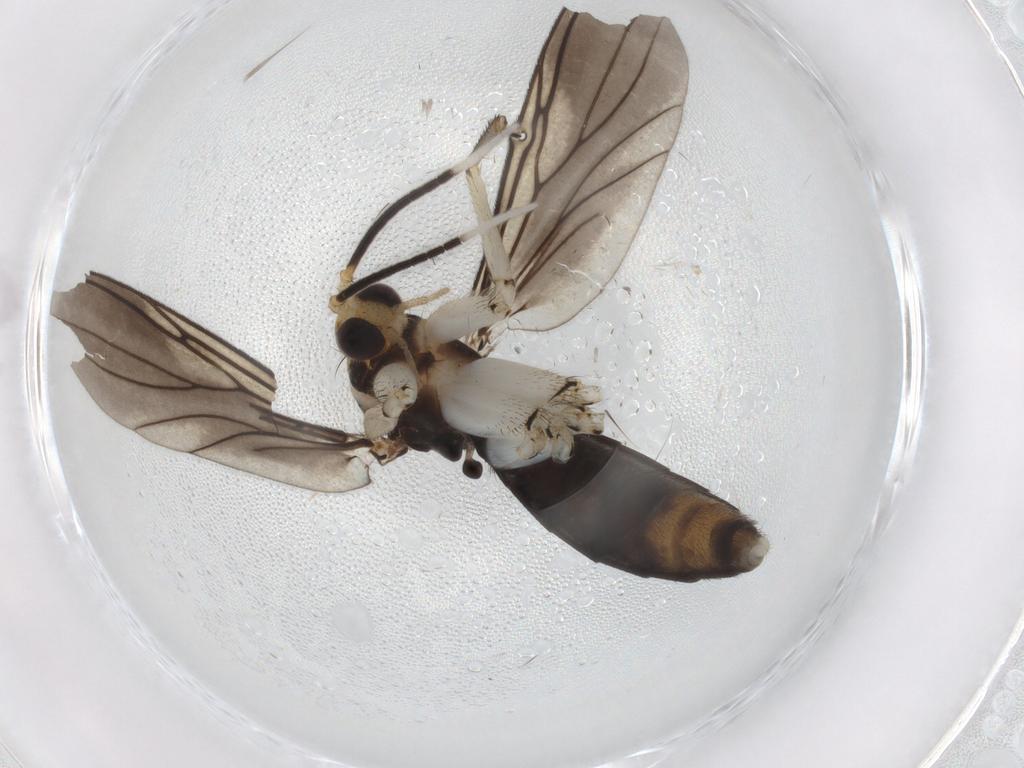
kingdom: Animalia
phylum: Arthropoda
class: Insecta
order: Diptera
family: Mycetophilidae
